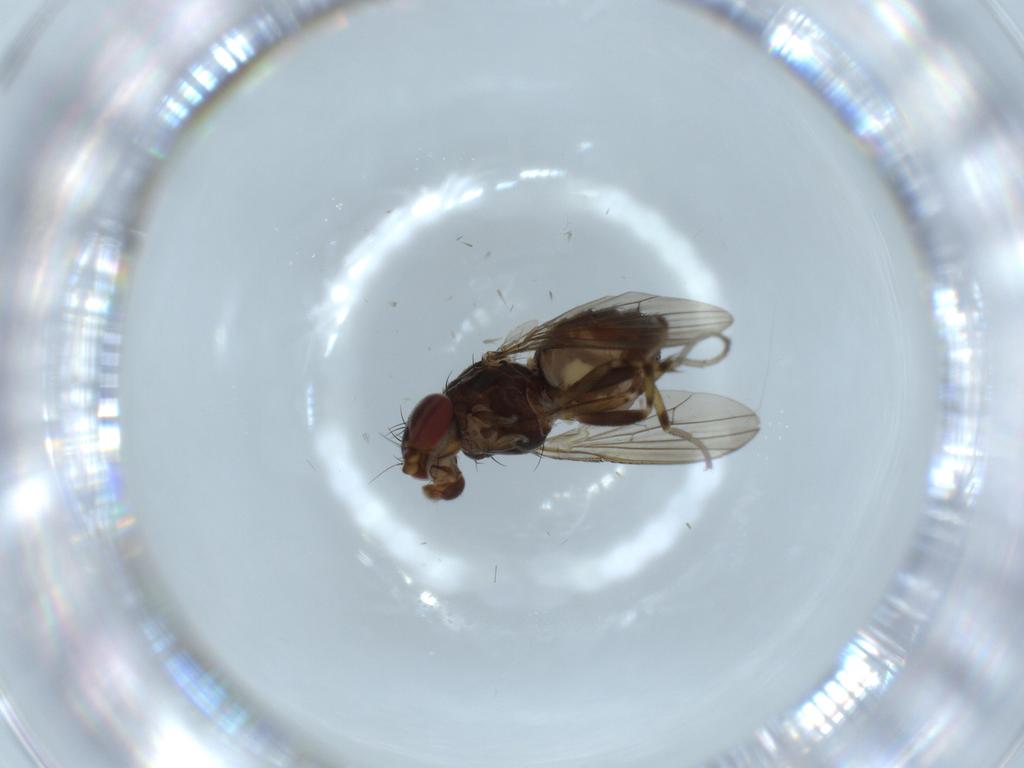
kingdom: Animalia
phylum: Arthropoda
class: Insecta
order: Diptera
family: Heleomyzidae
